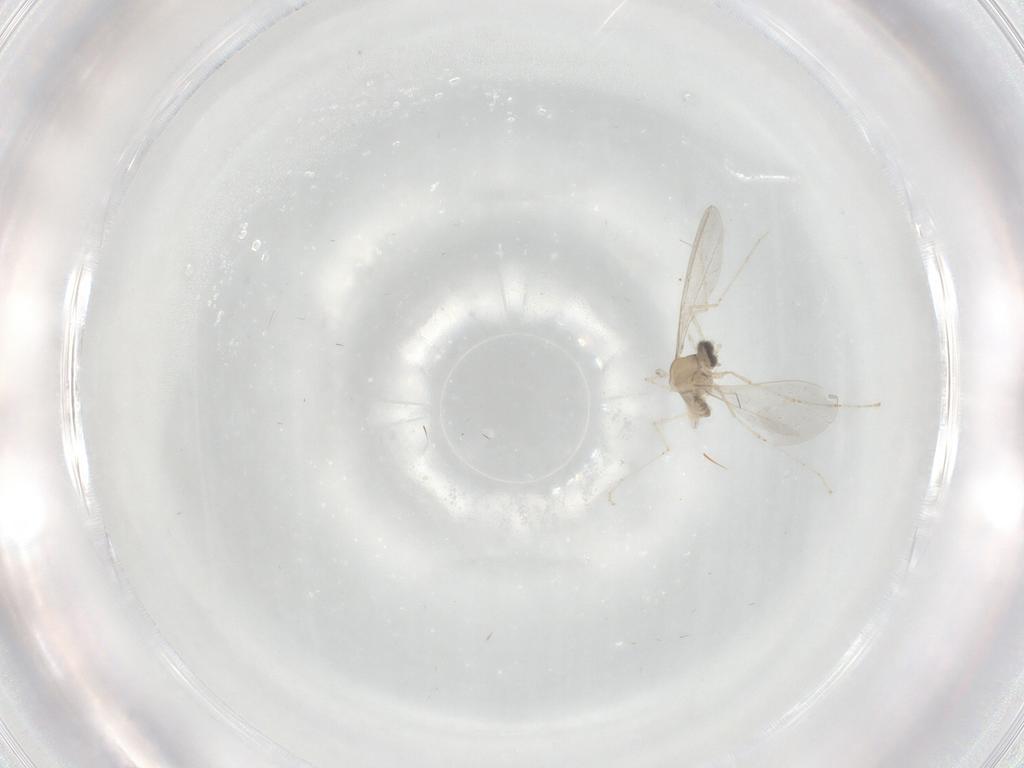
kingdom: Animalia
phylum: Arthropoda
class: Insecta
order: Diptera
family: Cecidomyiidae
